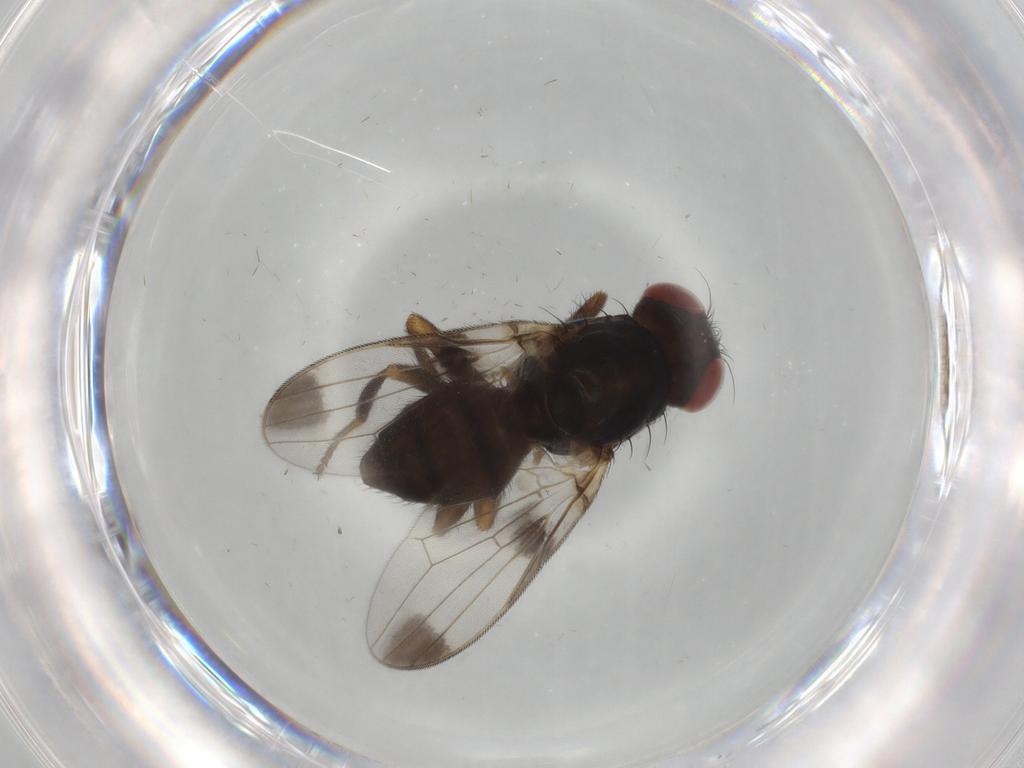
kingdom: Animalia
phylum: Arthropoda
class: Insecta
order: Diptera
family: Ulidiidae
